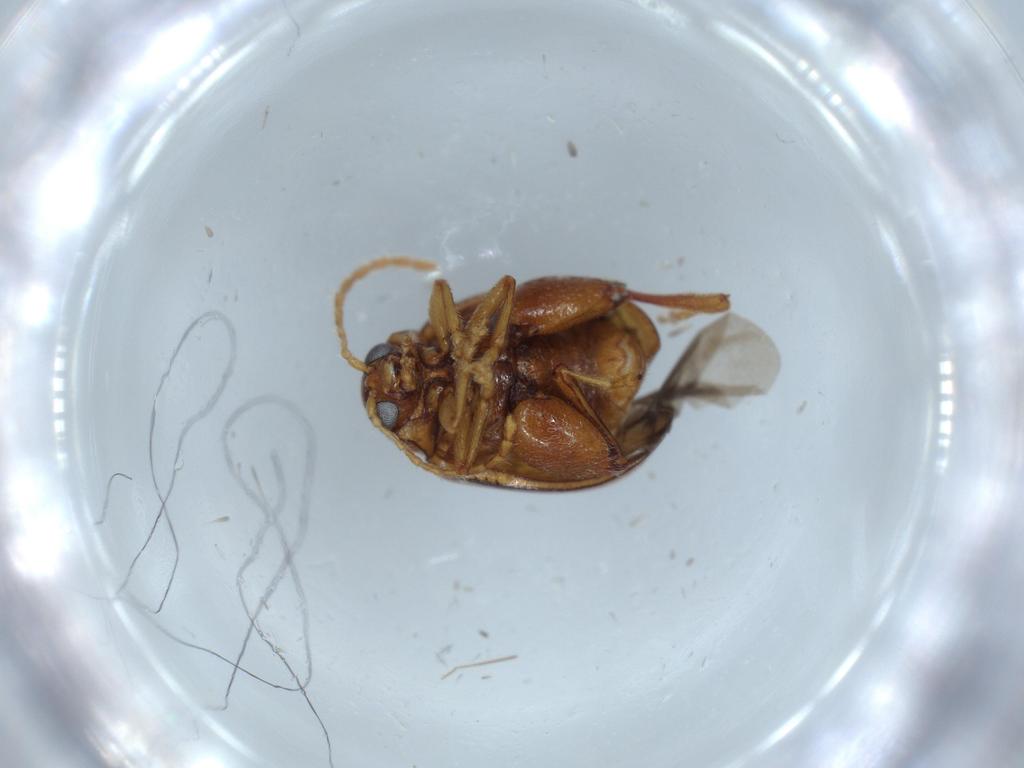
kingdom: Animalia
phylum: Arthropoda
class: Insecta
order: Coleoptera
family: Chrysomelidae
